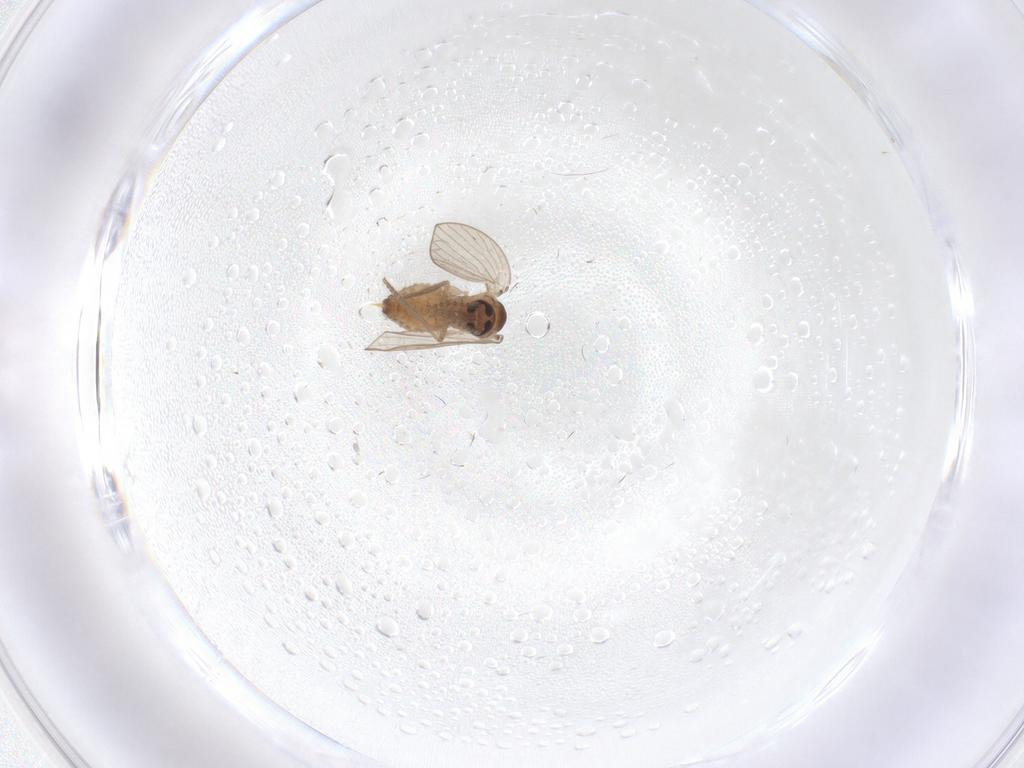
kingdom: Animalia
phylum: Arthropoda
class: Insecta
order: Diptera
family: Psychodidae
